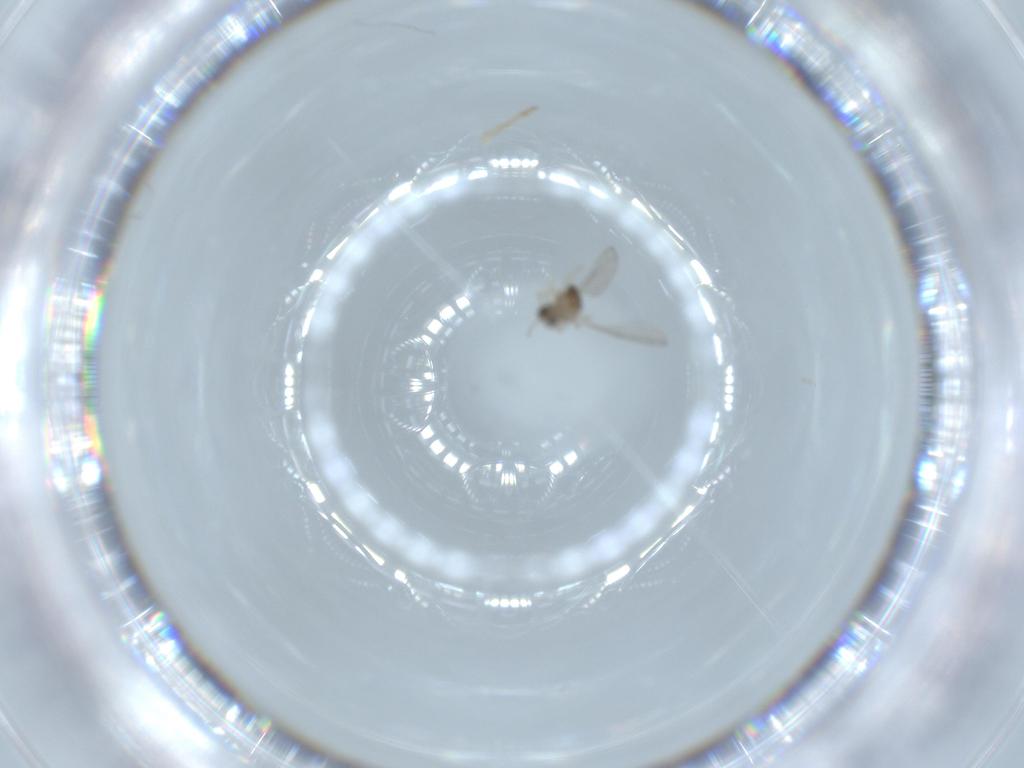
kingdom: Animalia
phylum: Arthropoda
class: Insecta
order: Diptera
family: Cecidomyiidae
